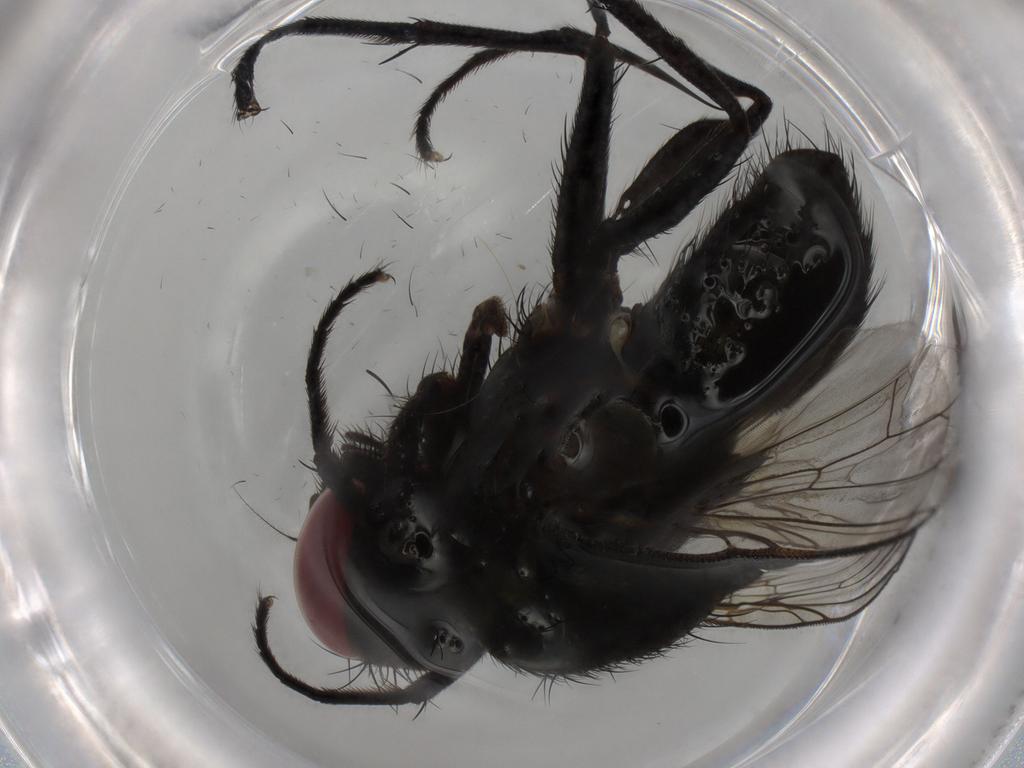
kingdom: Animalia
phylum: Arthropoda
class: Insecta
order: Diptera
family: Muscidae
